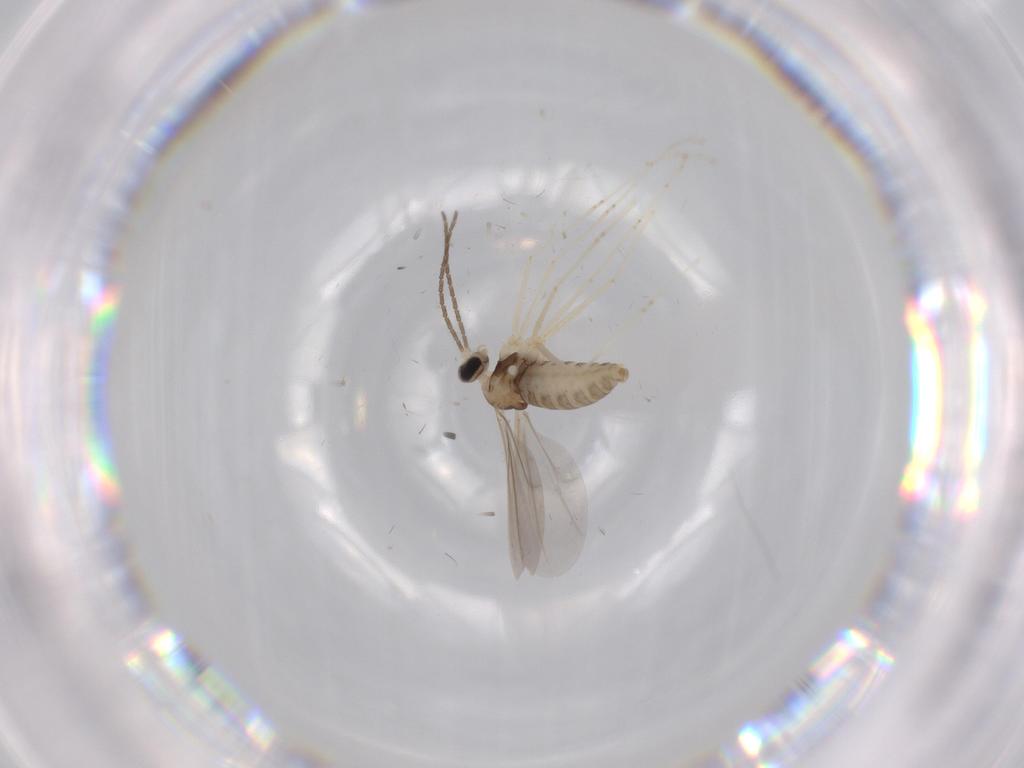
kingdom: Animalia
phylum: Arthropoda
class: Insecta
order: Diptera
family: Cecidomyiidae
